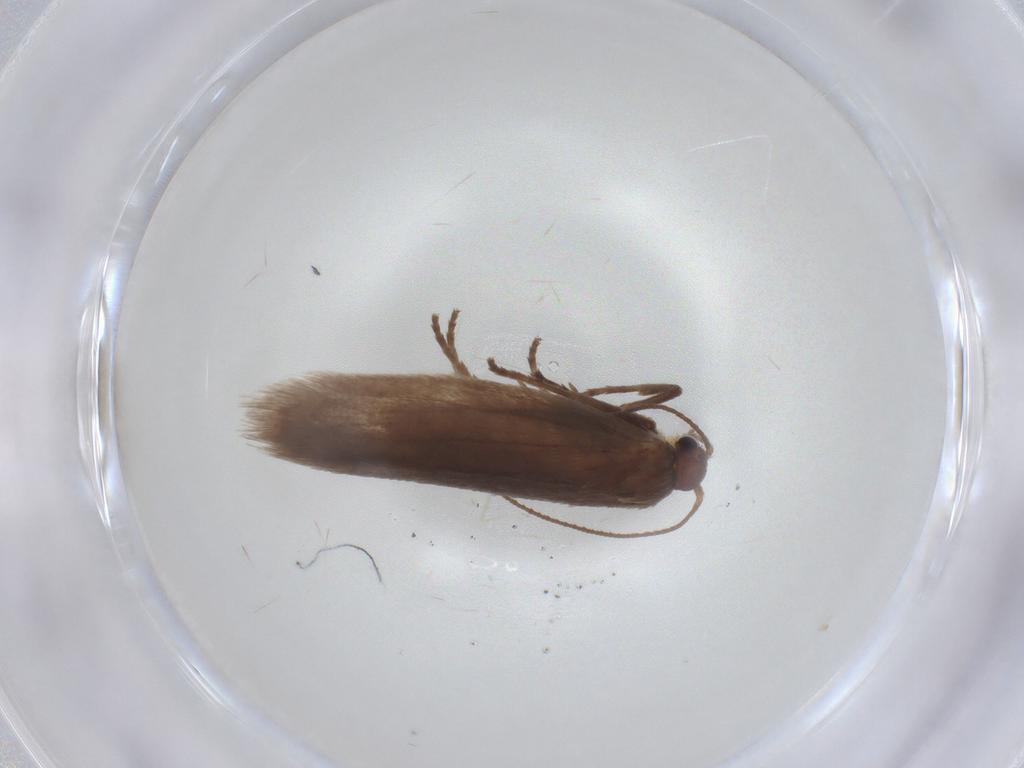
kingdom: Animalia
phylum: Arthropoda
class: Insecta
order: Lepidoptera
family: Limacodidae
